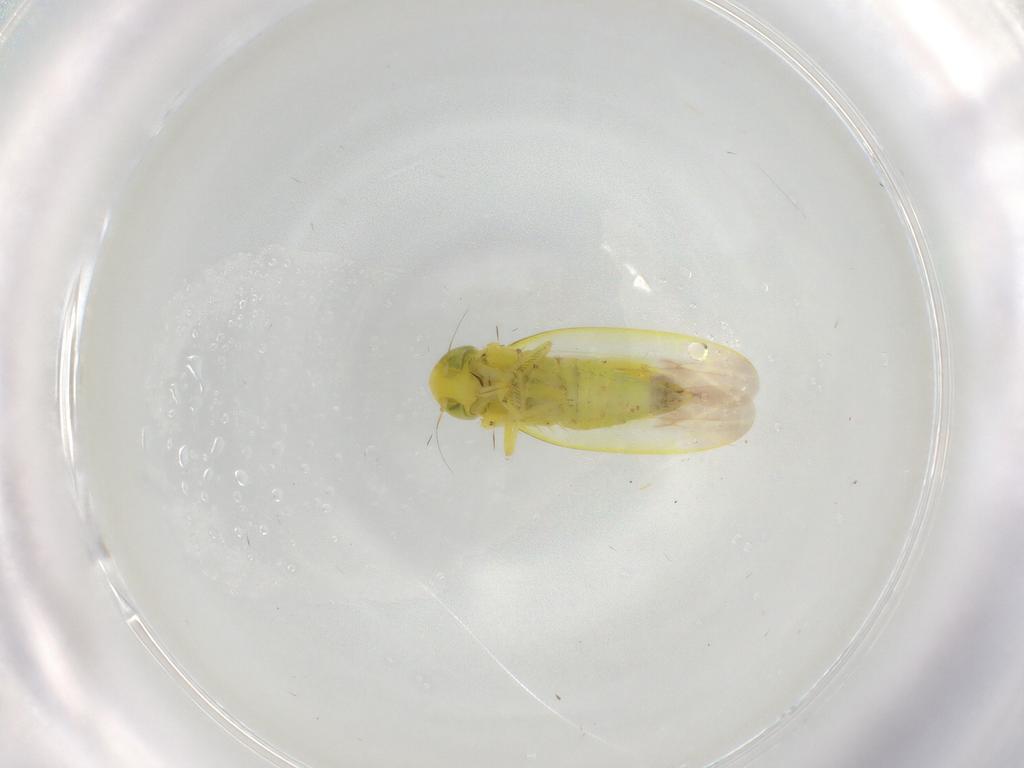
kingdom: Animalia
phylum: Arthropoda
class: Insecta
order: Hemiptera
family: Cicadellidae
